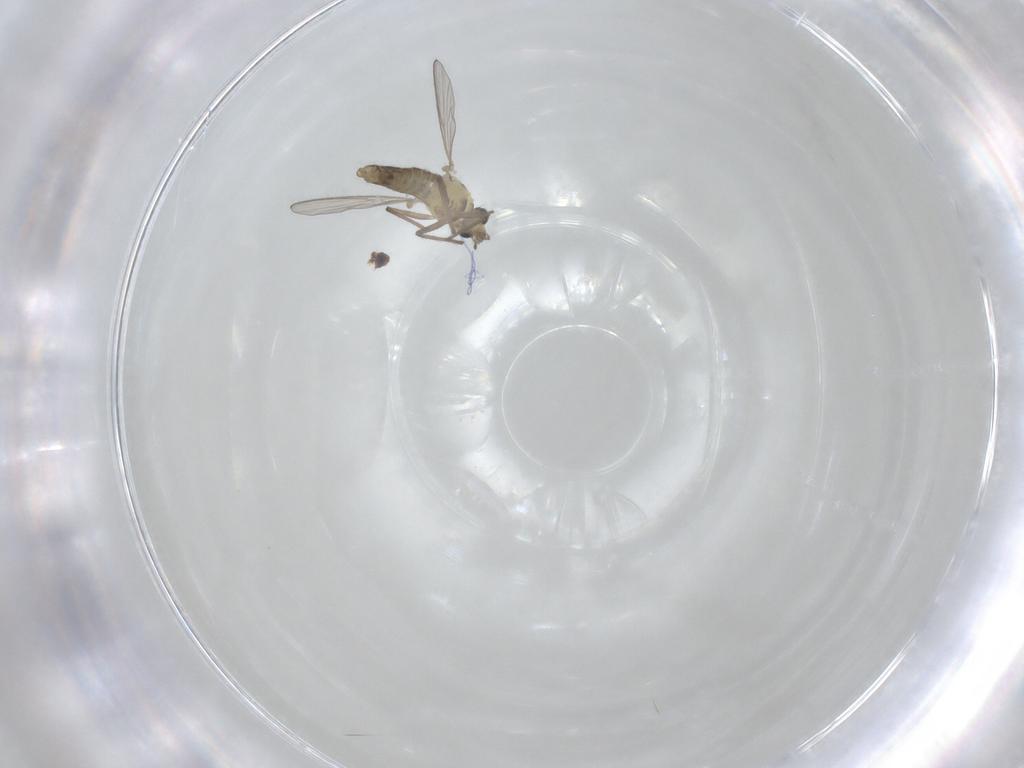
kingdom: Animalia
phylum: Arthropoda
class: Insecta
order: Diptera
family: Chironomidae
